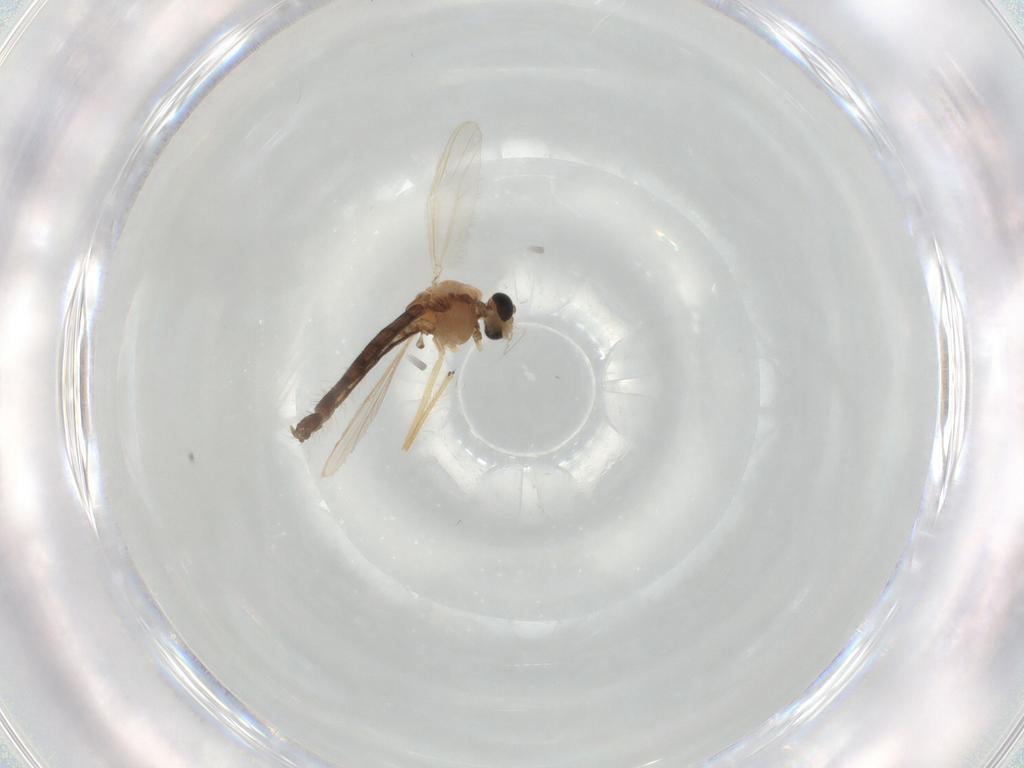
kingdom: Animalia
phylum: Arthropoda
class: Insecta
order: Diptera
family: Chironomidae
